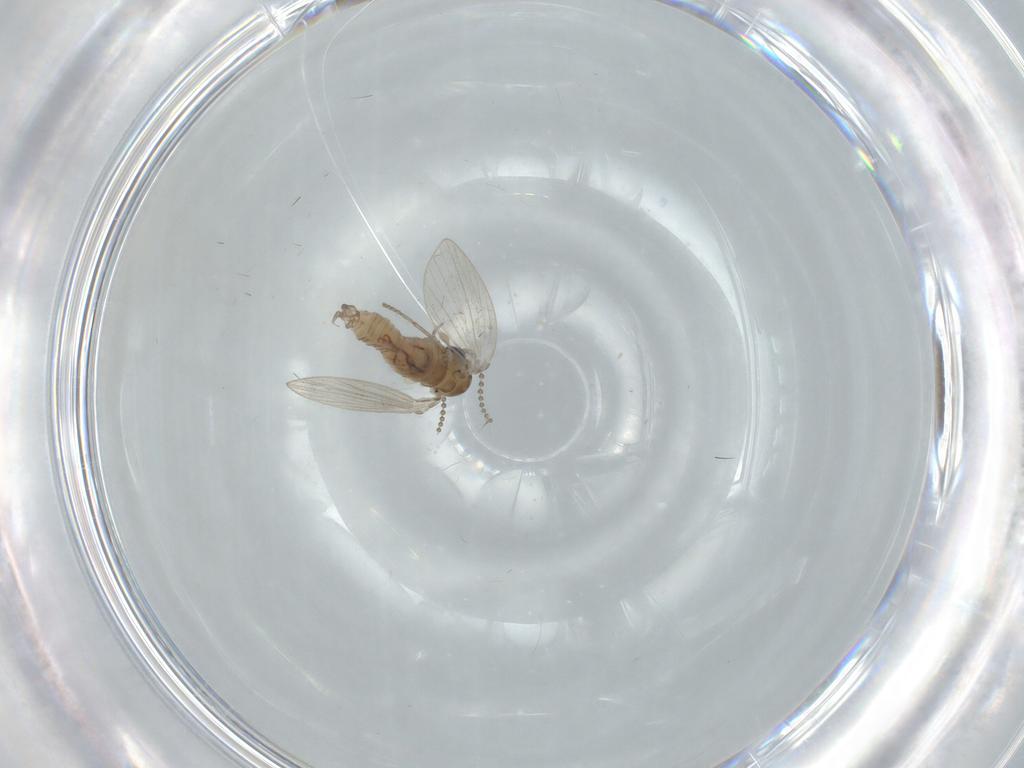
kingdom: Animalia
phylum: Arthropoda
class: Insecta
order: Diptera
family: Psychodidae
